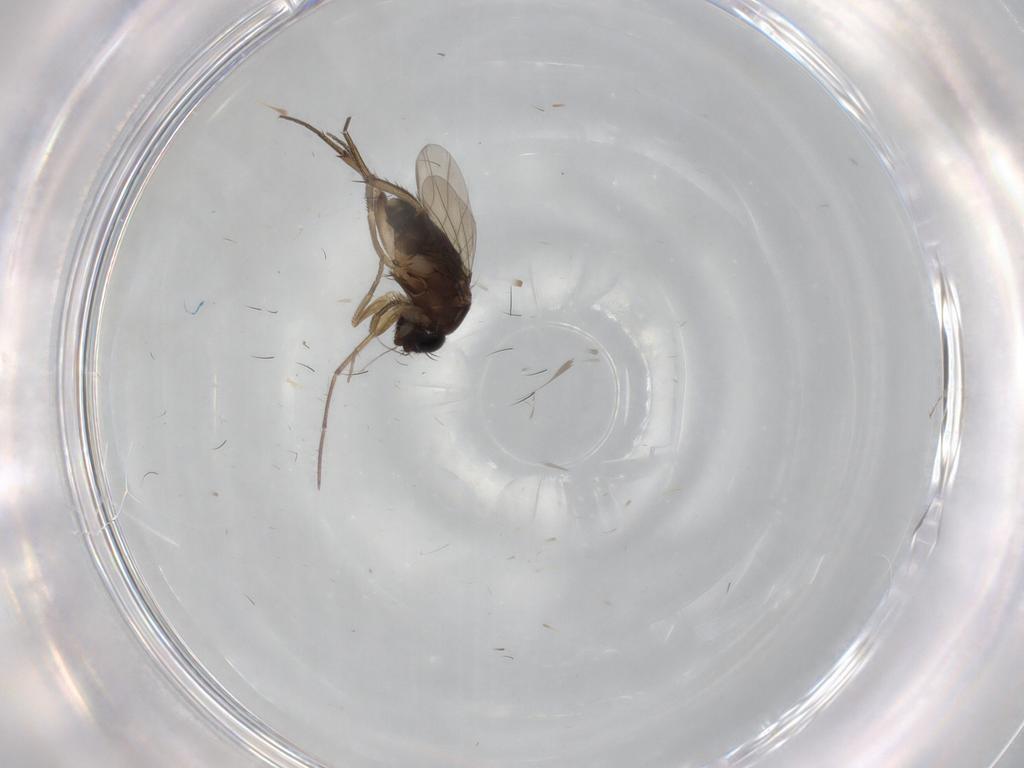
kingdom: Animalia
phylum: Arthropoda
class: Insecta
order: Diptera
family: Phoridae
